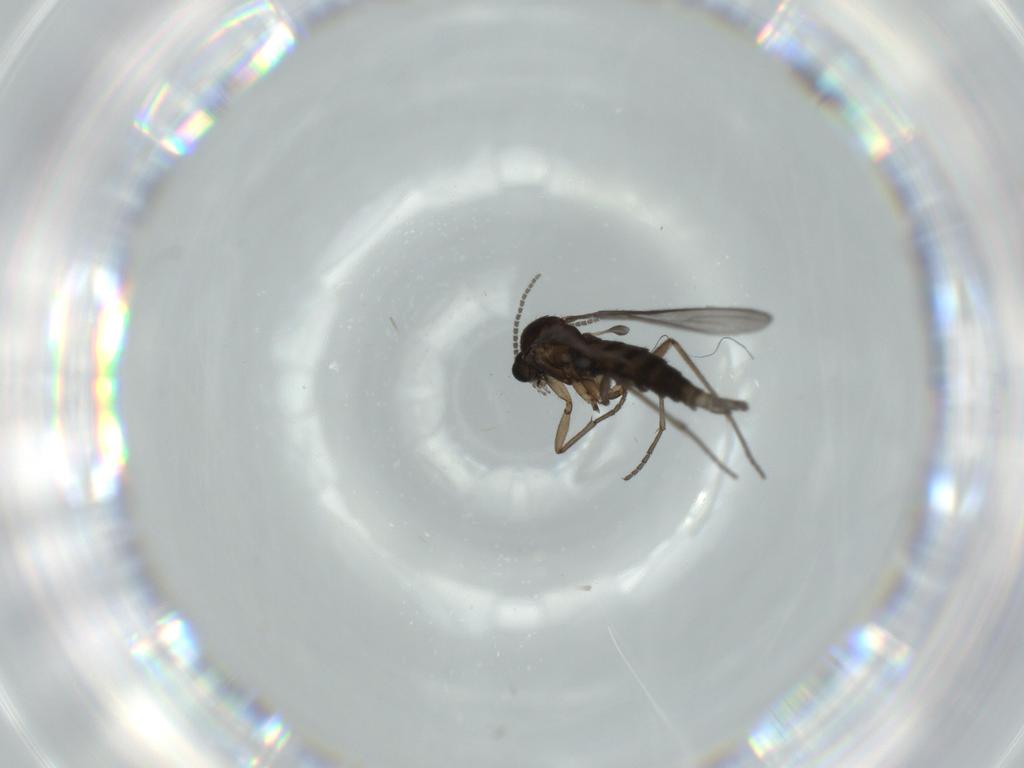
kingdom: Animalia
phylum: Arthropoda
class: Insecta
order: Diptera
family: Sciaridae
